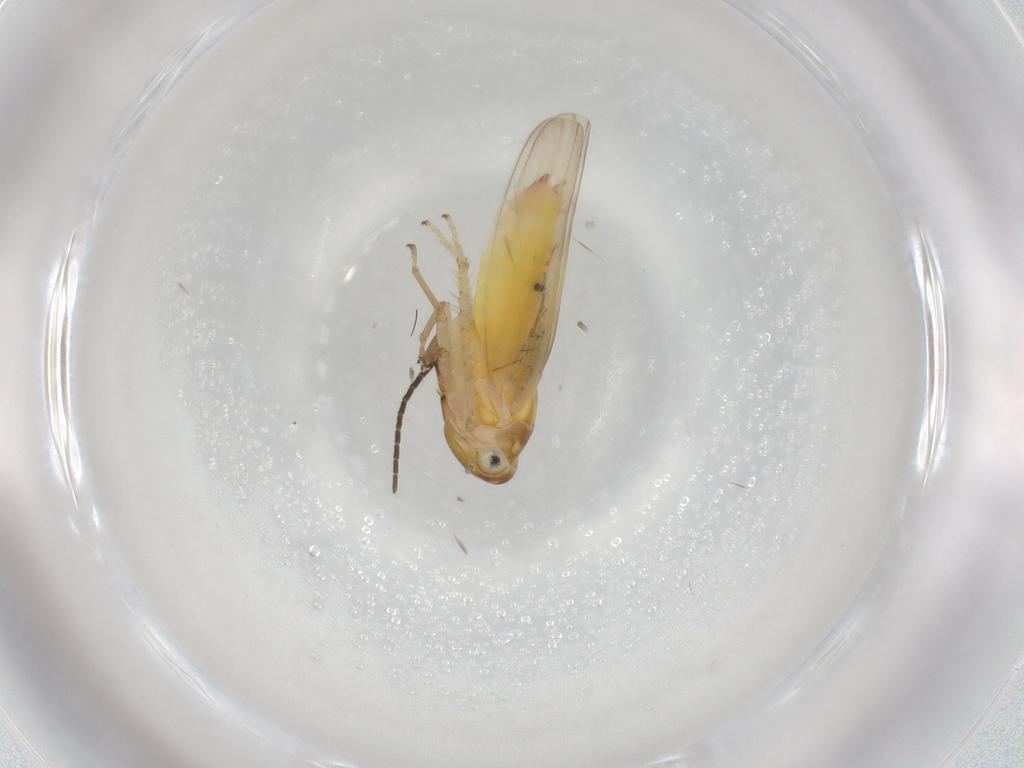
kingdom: Animalia
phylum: Arthropoda
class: Insecta
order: Hemiptera
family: Cicadellidae
